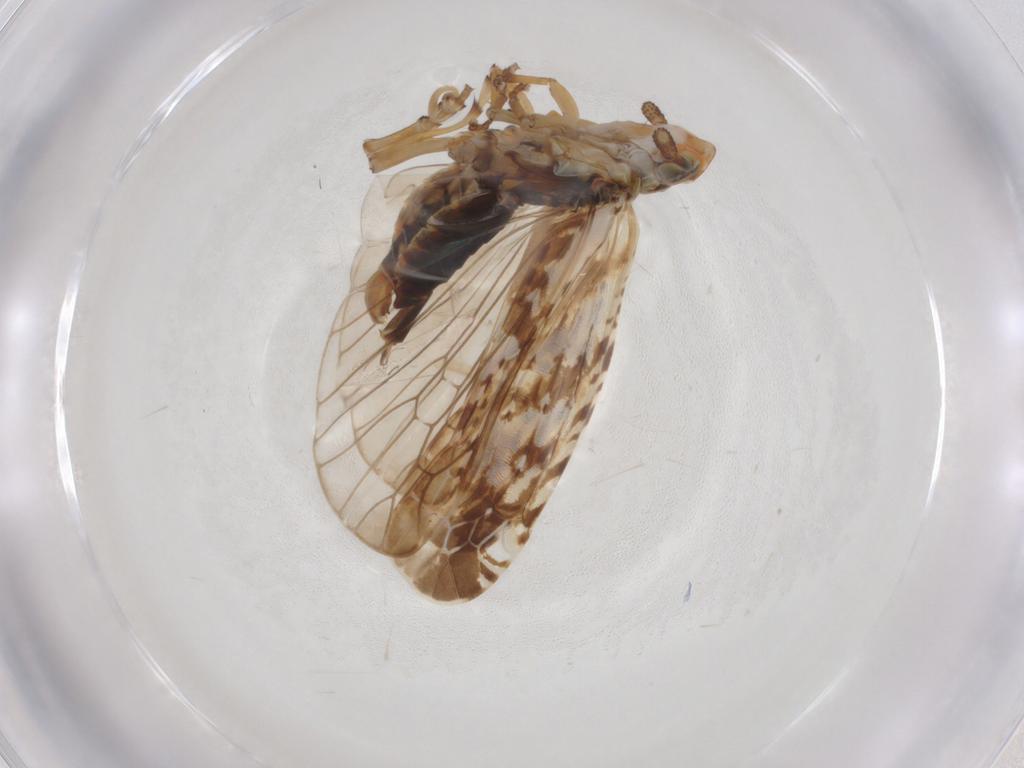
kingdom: Animalia
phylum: Arthropoda
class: Insecta
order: Hemiptera
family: Achilidae
